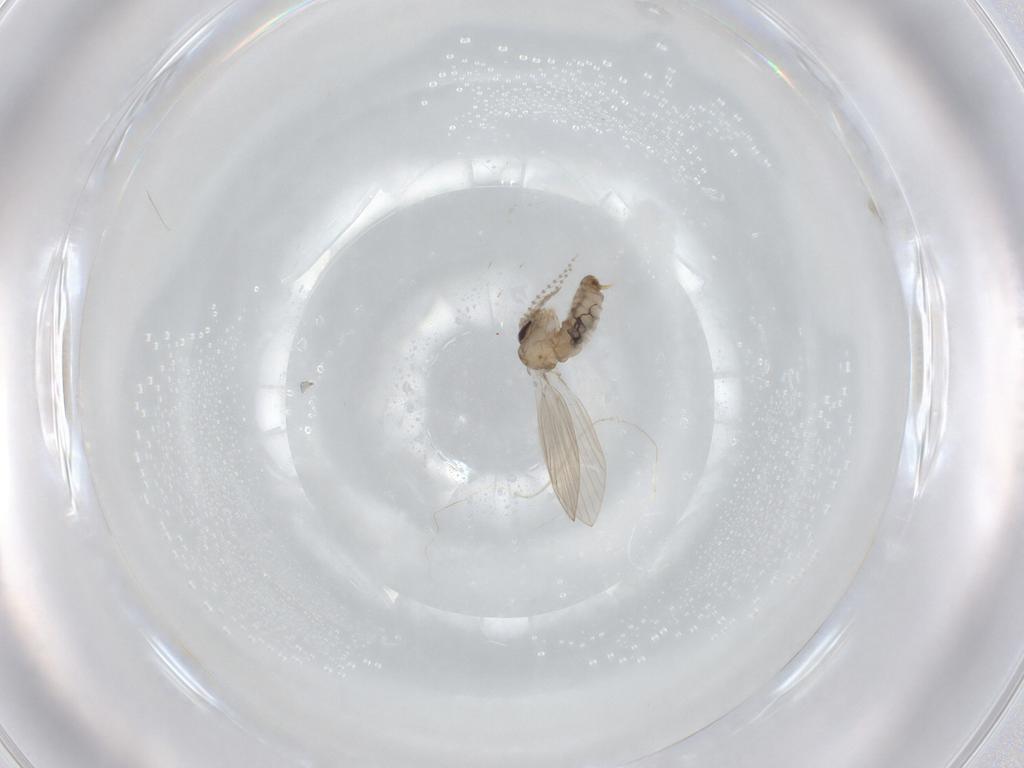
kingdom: Animalia
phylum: Arthropoda
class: Insecta
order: Diptera
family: Psychodidae
